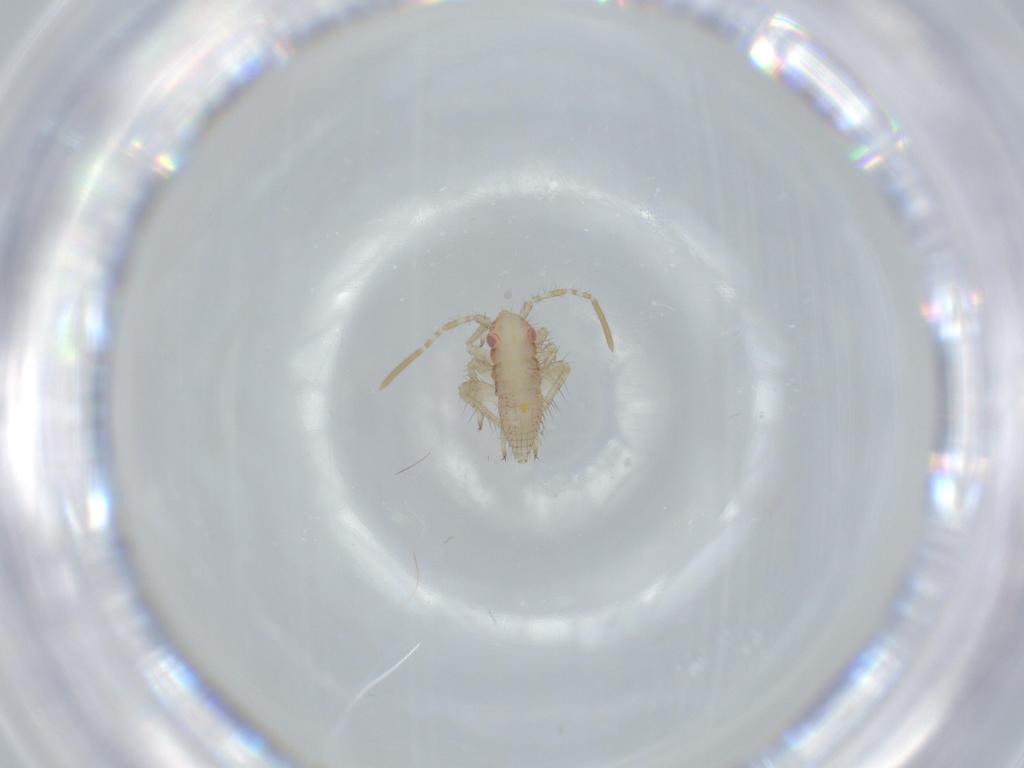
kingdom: Animalia
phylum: Arthropoda
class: Insecta
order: Hemiptera
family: Miridae
